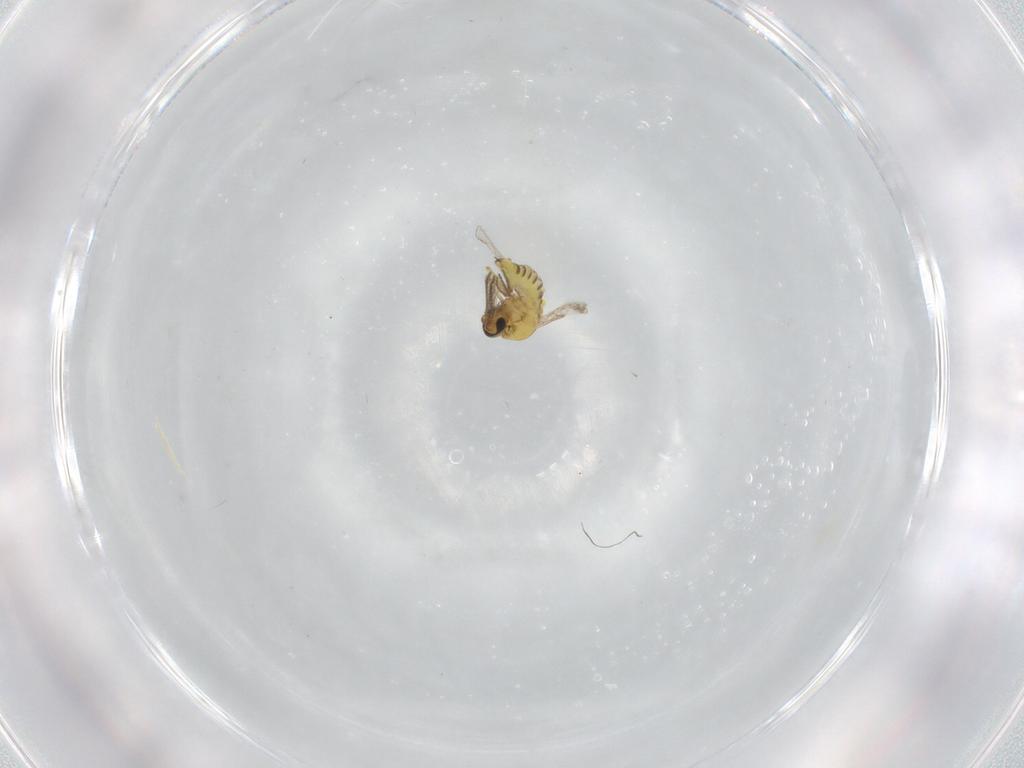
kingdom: Animalia
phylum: Arthropoda
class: Insecta
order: Diptera
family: Ceratopogonidae
